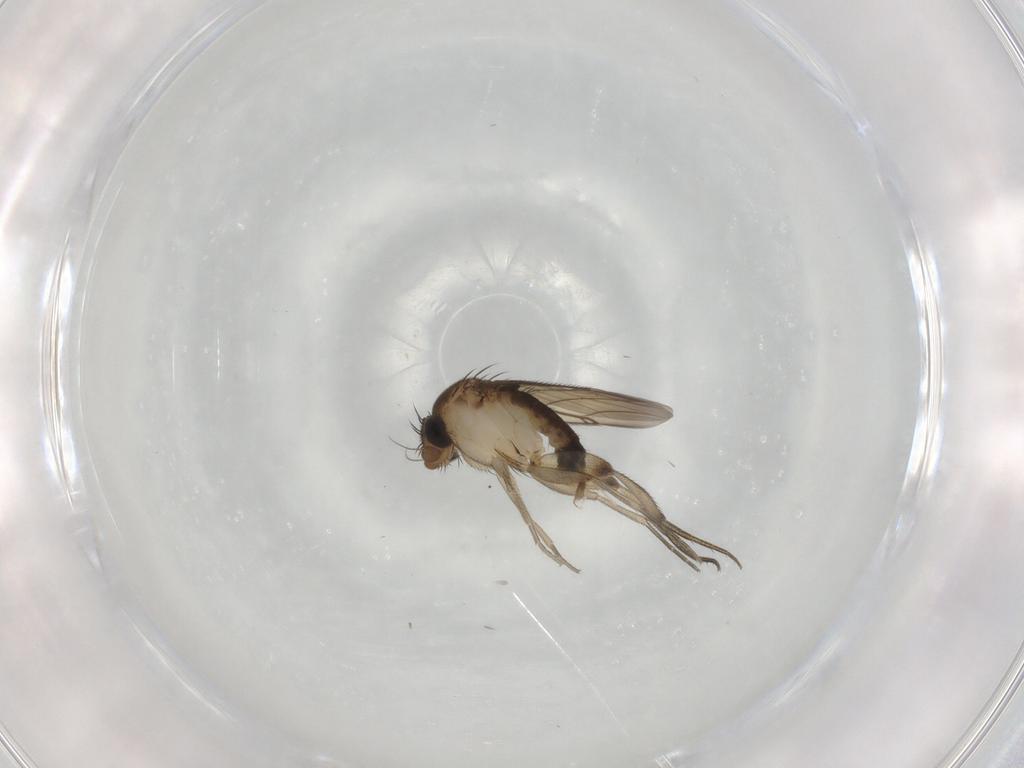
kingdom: Animalia
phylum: Arthropoda
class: Insecta
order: Diptera
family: Phoridae
